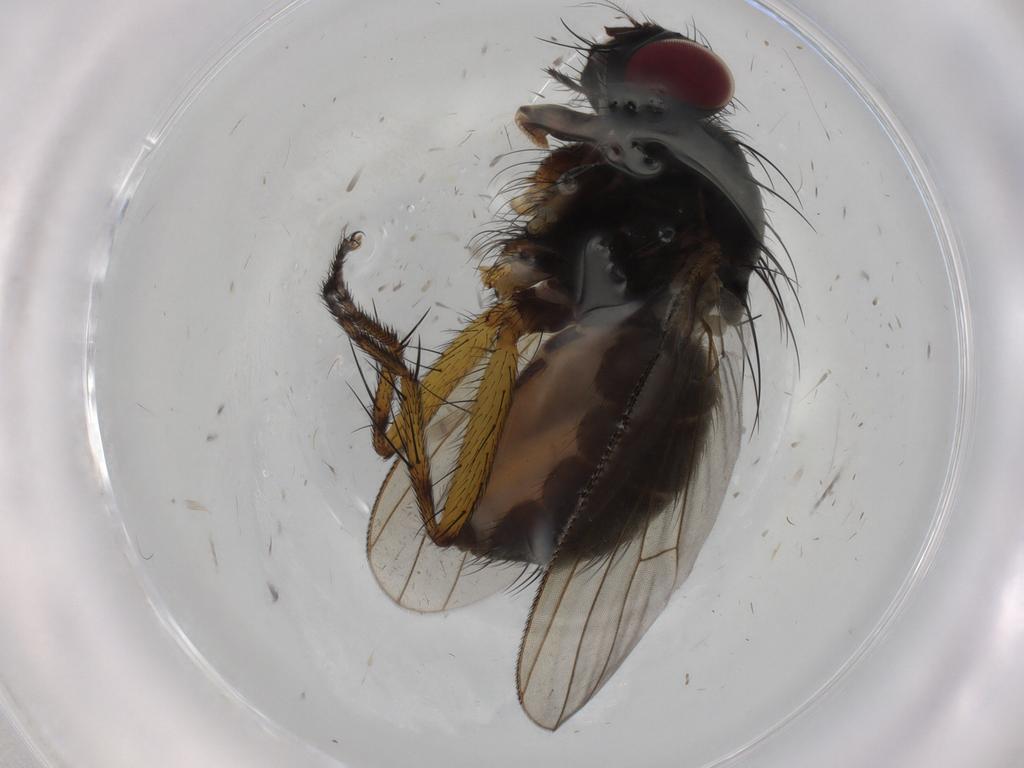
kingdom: Animalia
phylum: Arthropoda
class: Insecta
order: Diptera
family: Muscidae
